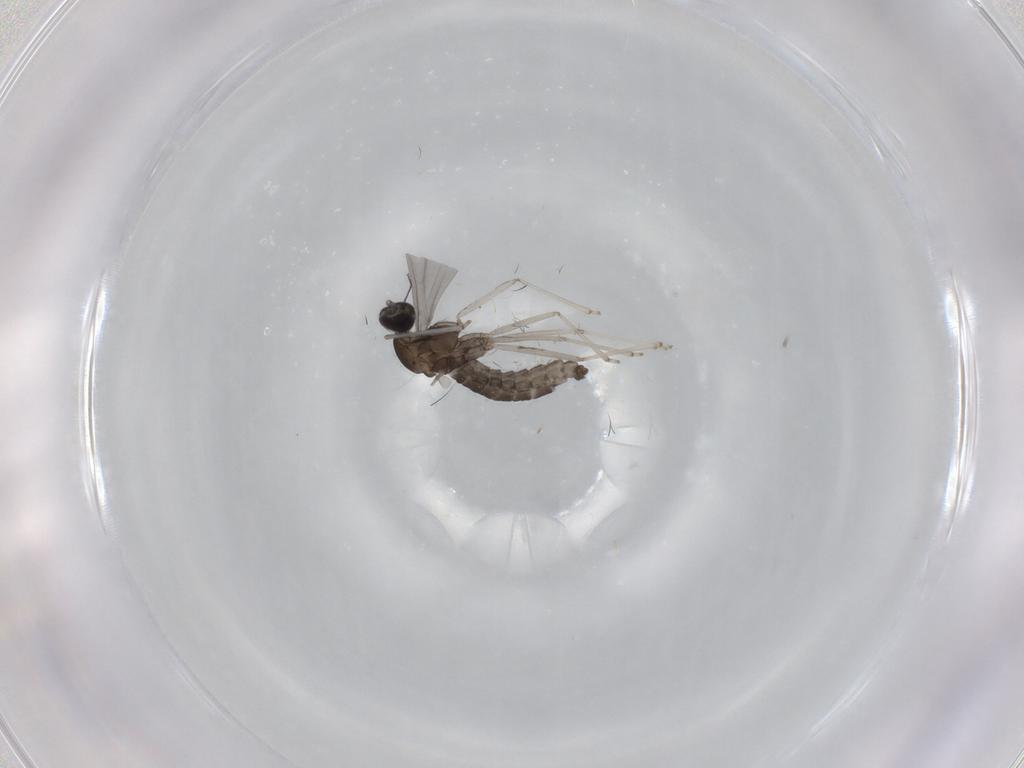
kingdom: Animalia
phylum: Arthropoda
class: Insecta
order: Diptera
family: Cecidomyiidae
